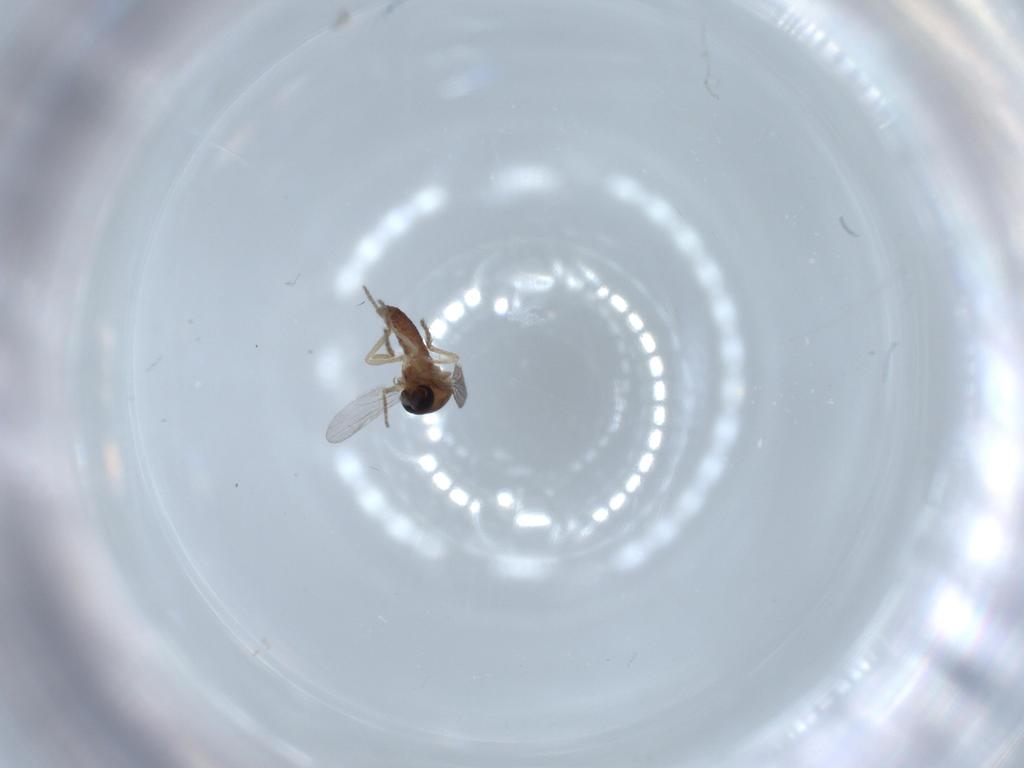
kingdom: Animalia
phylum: Arthropoda
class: Insecta
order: Diptera
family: Ceratopogonidae
